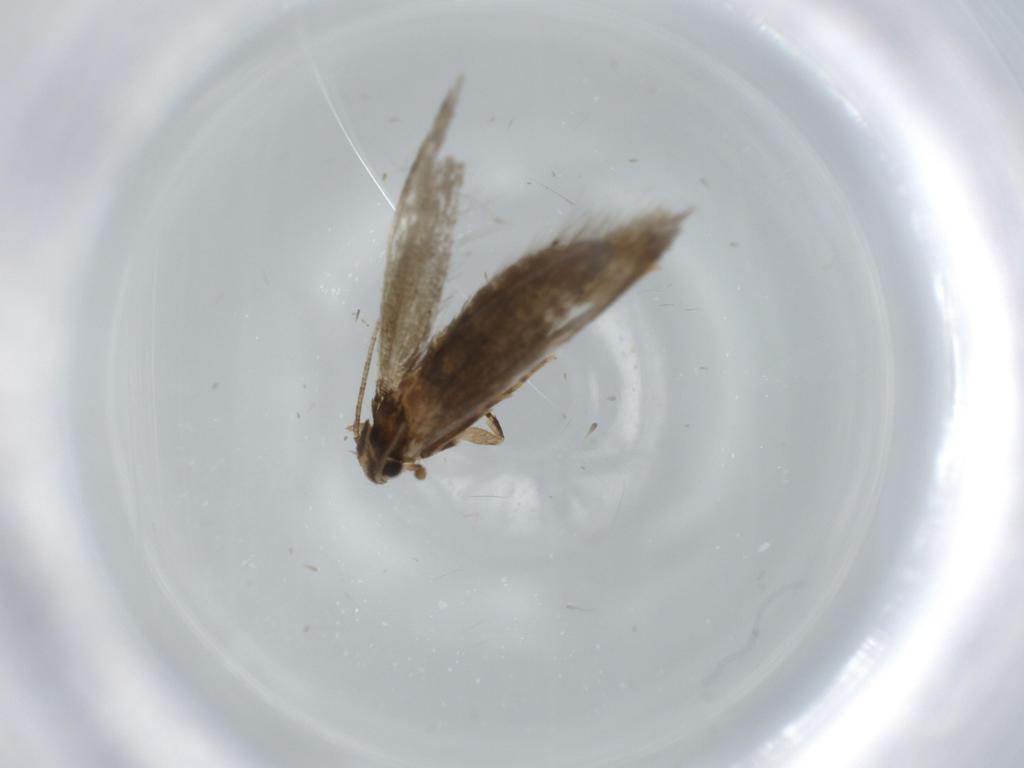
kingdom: Animalia
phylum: Arthropoda
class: Insecta
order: Lepidoptera
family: Tineidae
